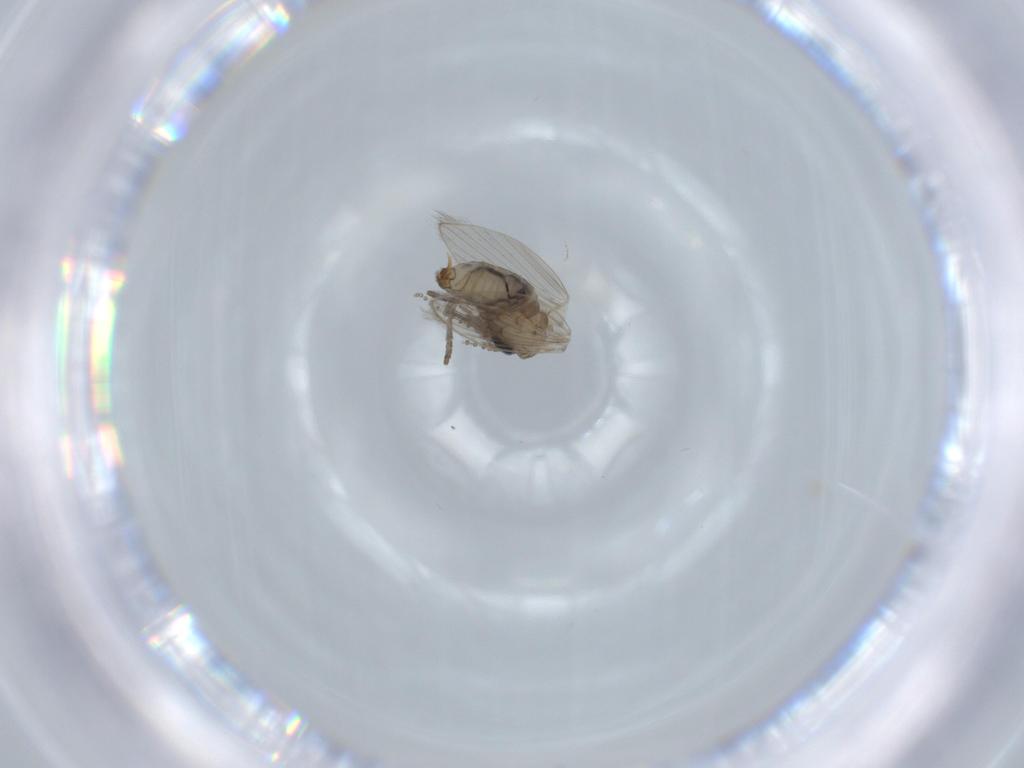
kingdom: Animalia
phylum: Arthropoda
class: Insecta
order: Diptera
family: Psychodidae
